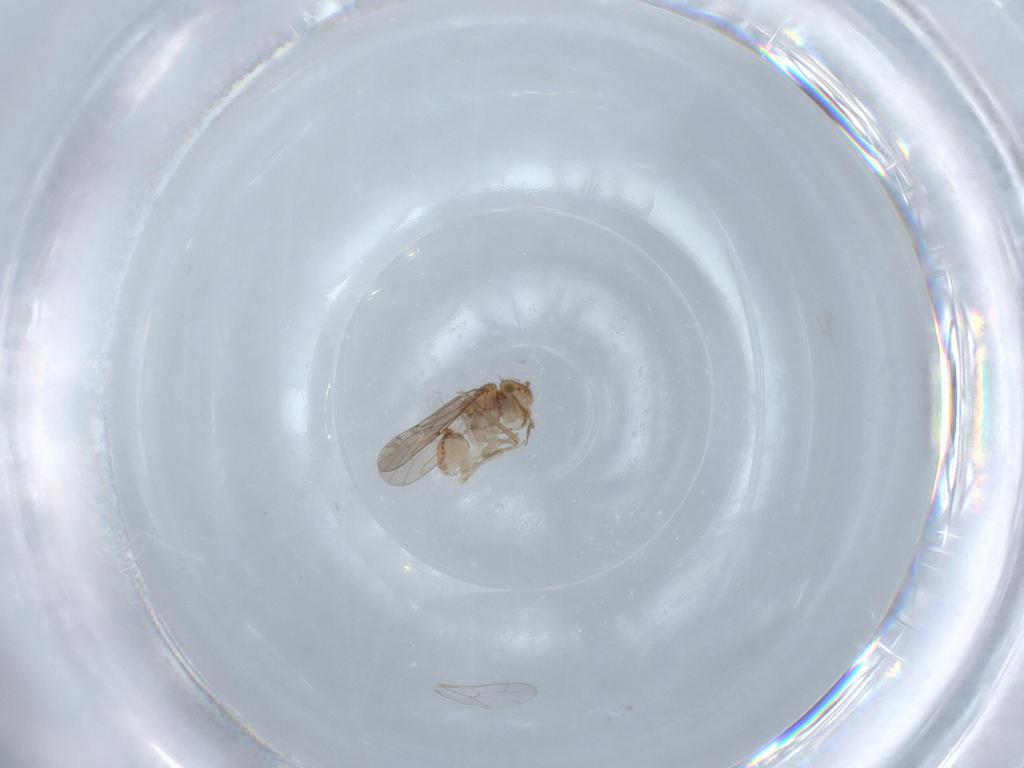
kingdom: Animalia
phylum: Arthropoda
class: Insecta
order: Psocodea
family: Ectopsocidae
